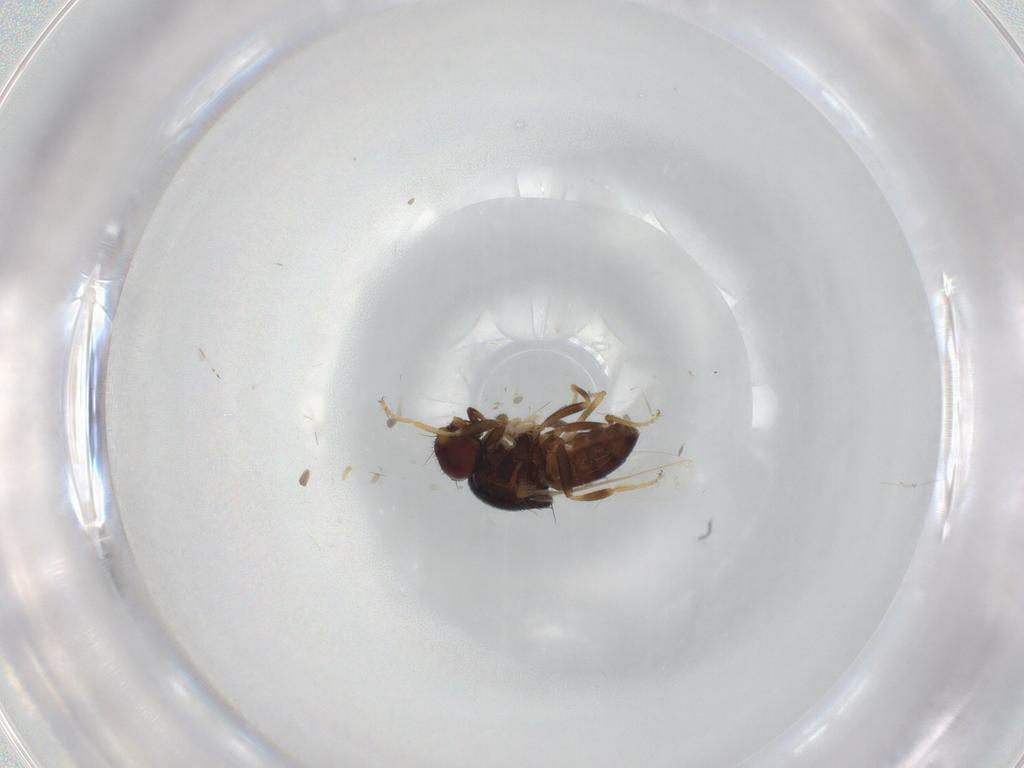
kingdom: Animalia
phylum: Arthropoda
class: Insecta
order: Diptera
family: Chloropidae
